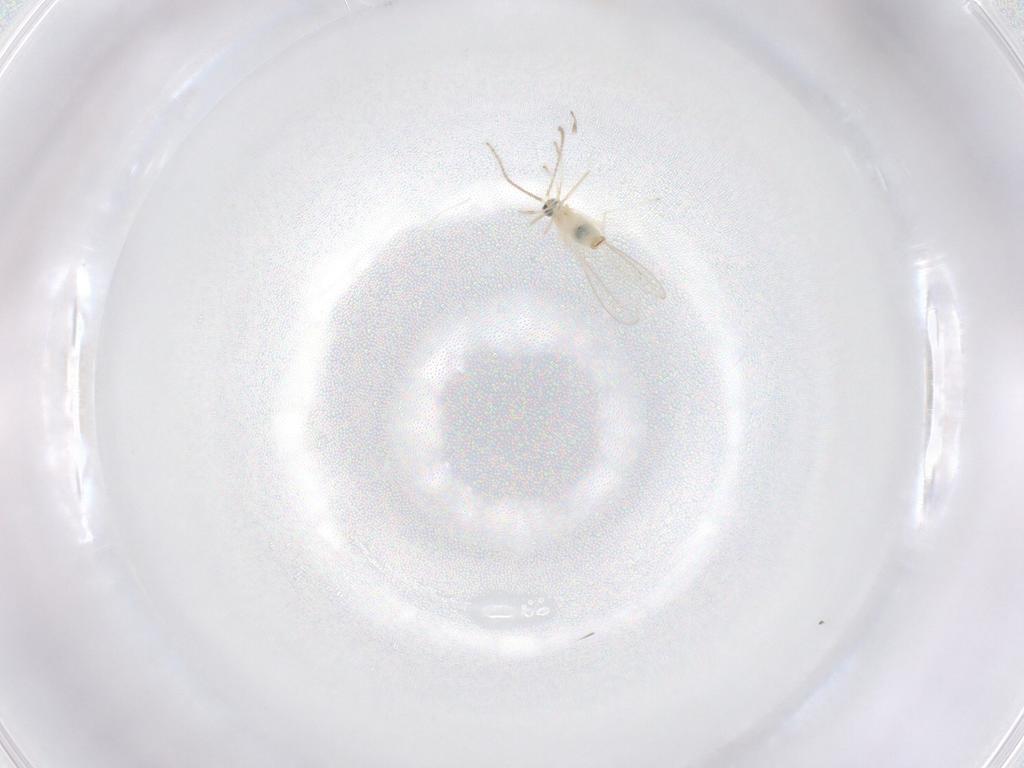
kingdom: Animalia
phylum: Arthropoda
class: Insecta
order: Diptera
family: Cecidomyiidae
